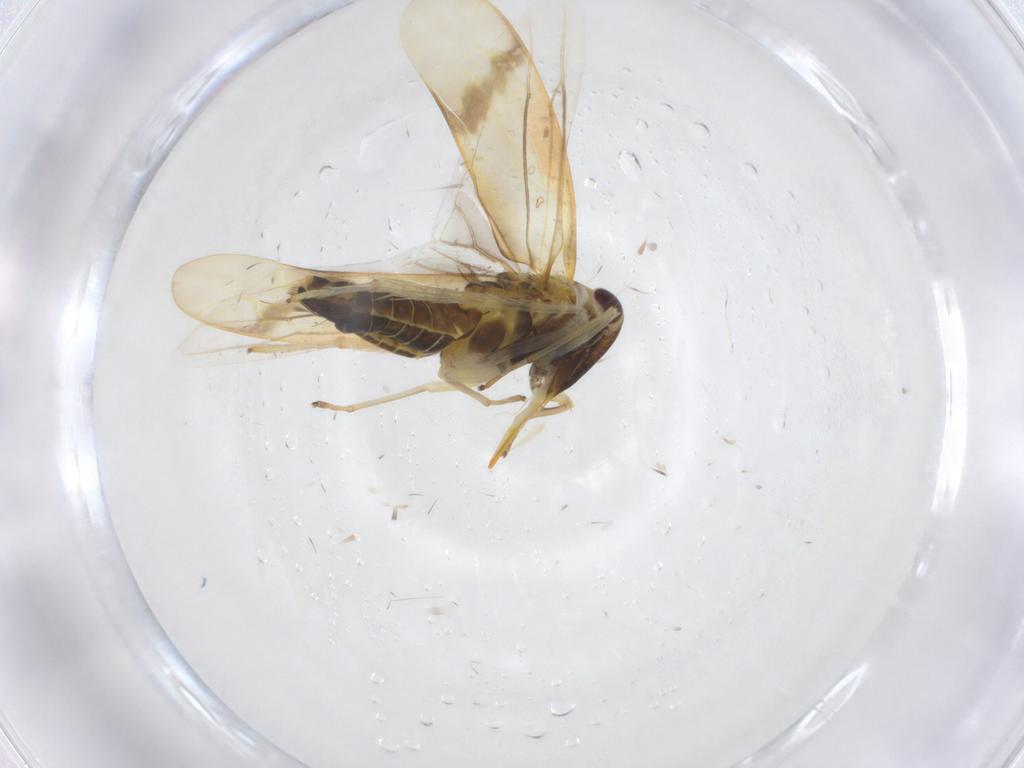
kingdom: Animalia
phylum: Arthropoda
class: Insecta
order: Hemiptera
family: Cicadellidae
